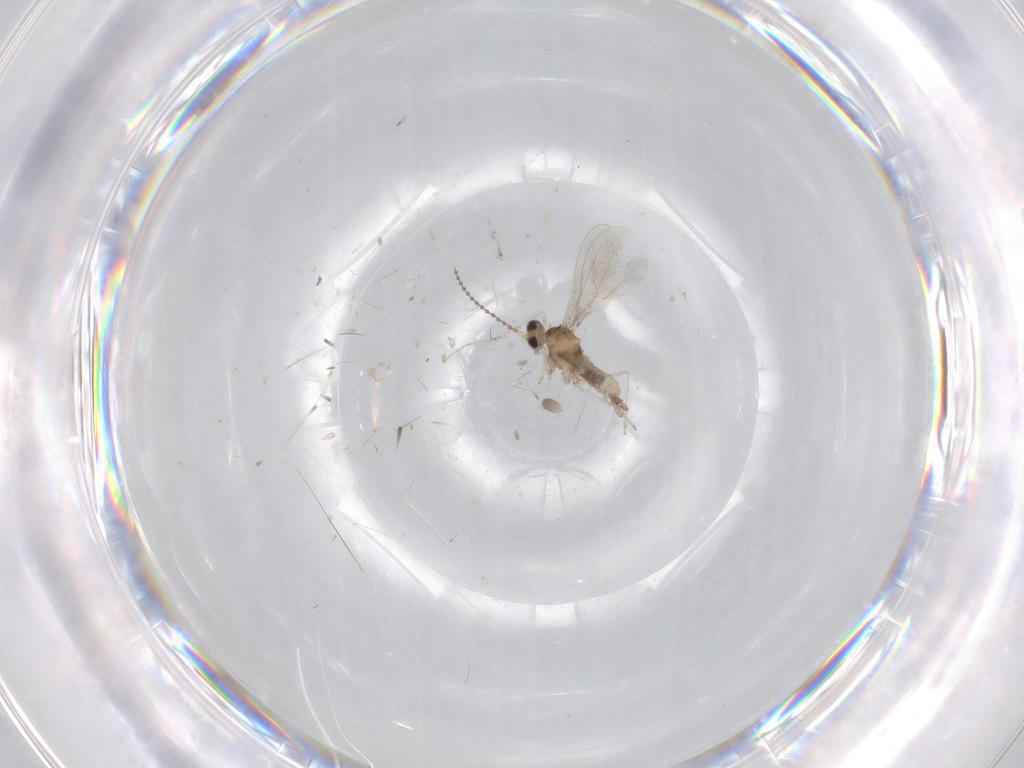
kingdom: Animalia
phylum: Arthropoda
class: Insecta
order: Diptera
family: Cecidomyiidae
